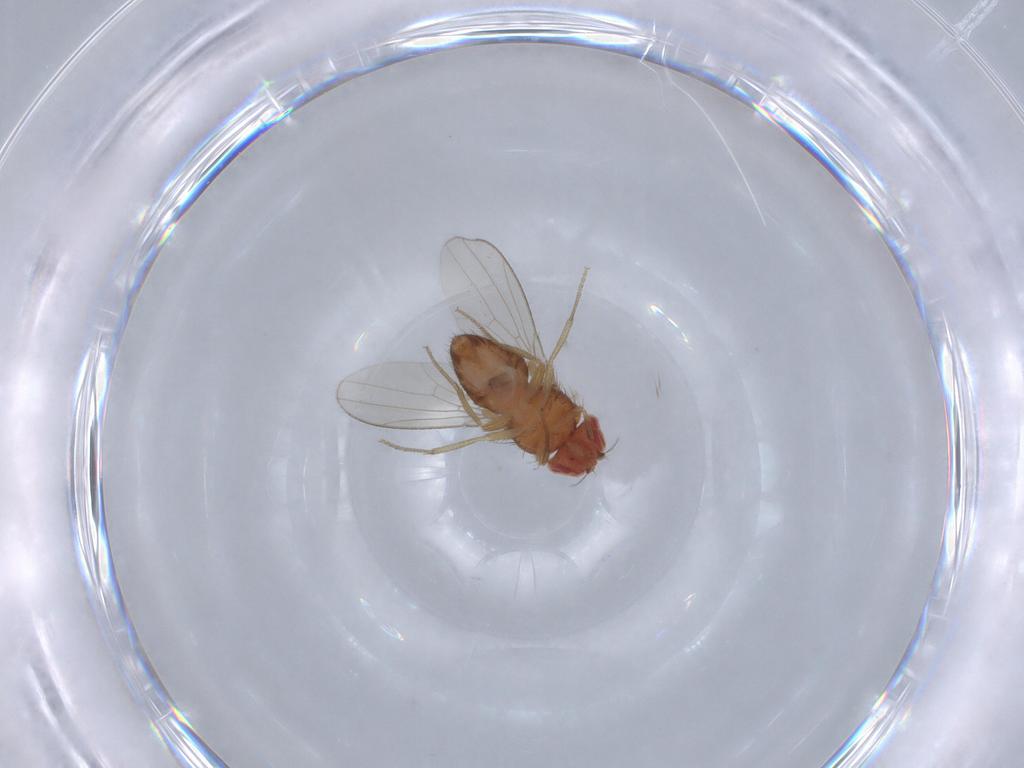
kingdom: Animalia
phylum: Arthropoda
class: Insecta
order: Diptera
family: Drosophilidae
